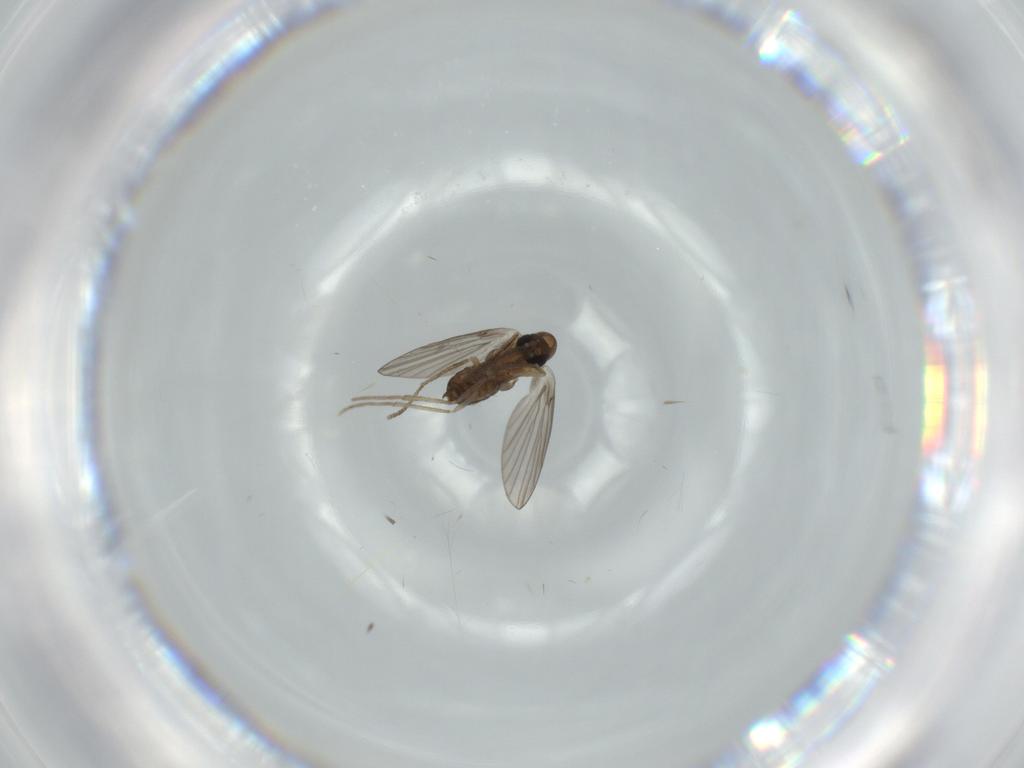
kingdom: Animalia
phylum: Arthropoda
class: Insecta
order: Diptera
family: Psychodidae
